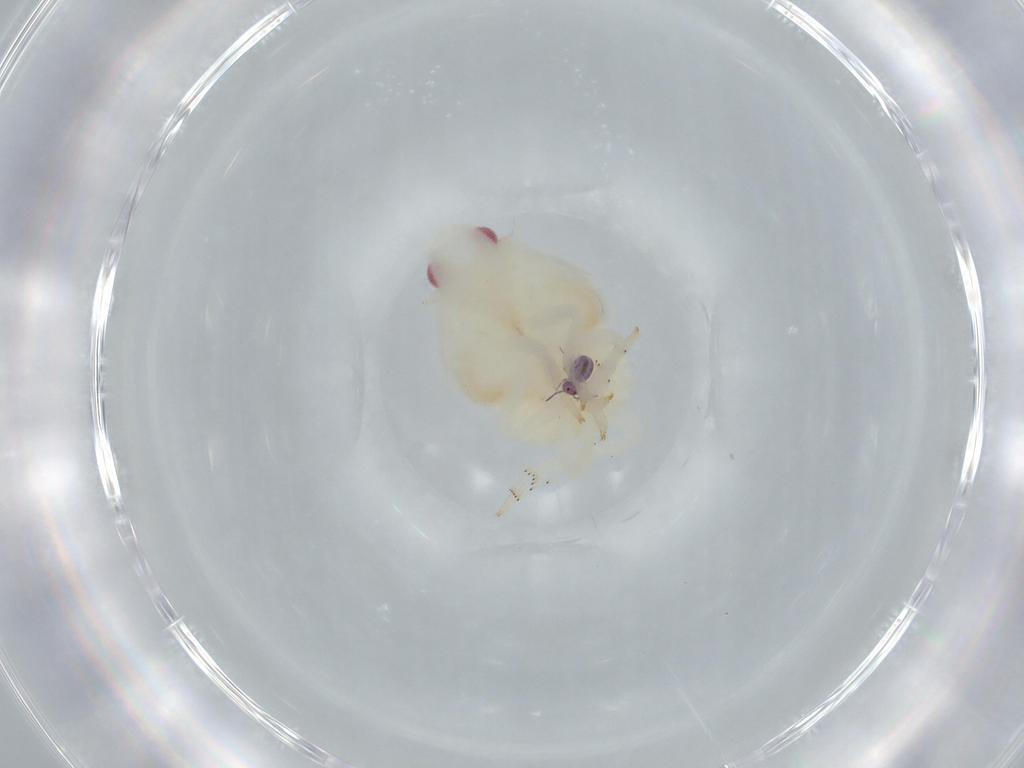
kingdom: Animalia
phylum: Arthropoda
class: Insecta
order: Hemiptera
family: Flatidae
